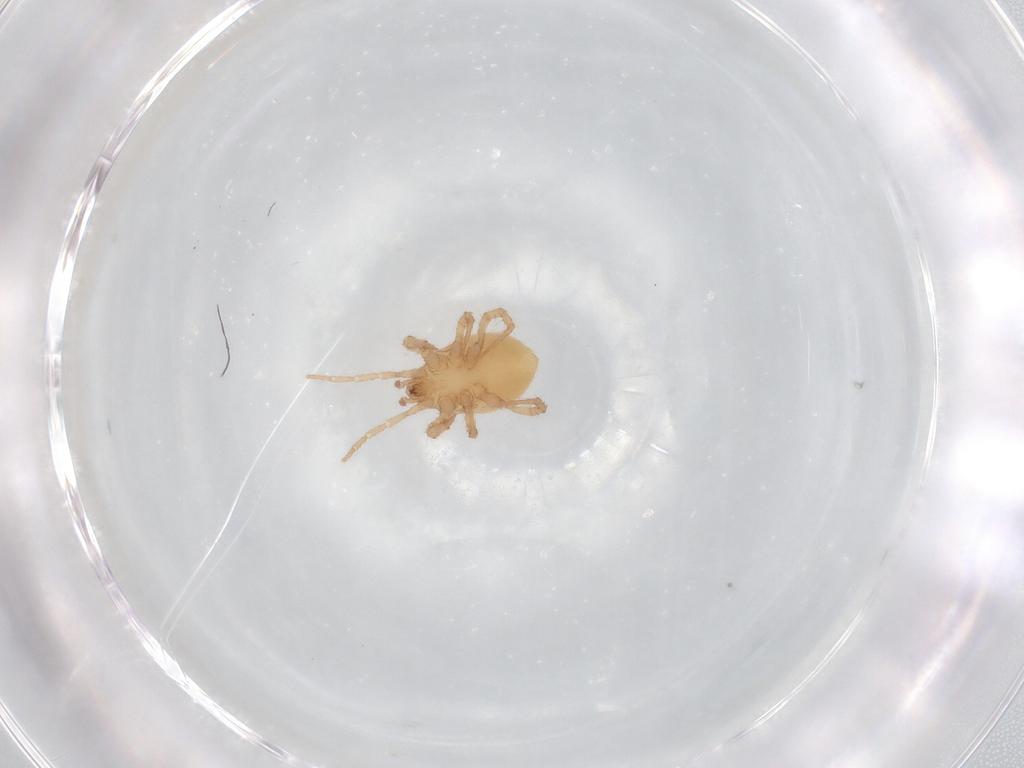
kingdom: Animalia
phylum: Arthropoda
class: Arachnida
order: Mesostigmata
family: Parasitidae
